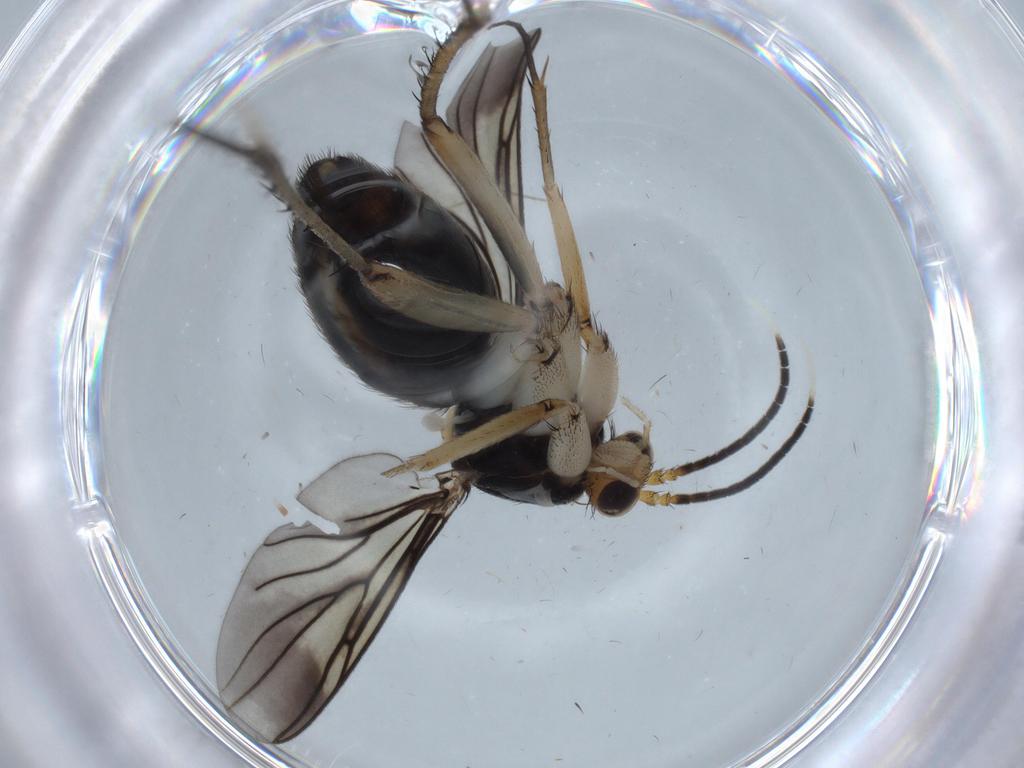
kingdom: Animalia
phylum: Arthropoda
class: Insecta
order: Diptera
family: Mycetophilidae
